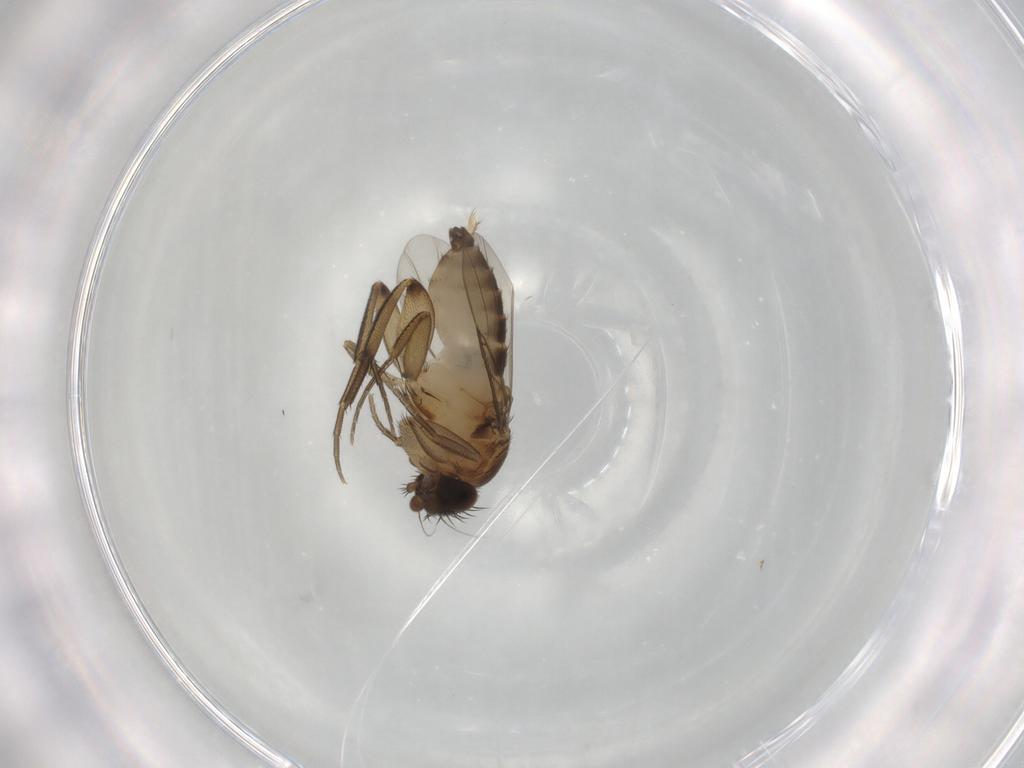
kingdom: Animalia
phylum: Arthropoda
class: Insecta
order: Diptera
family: Phoridae
